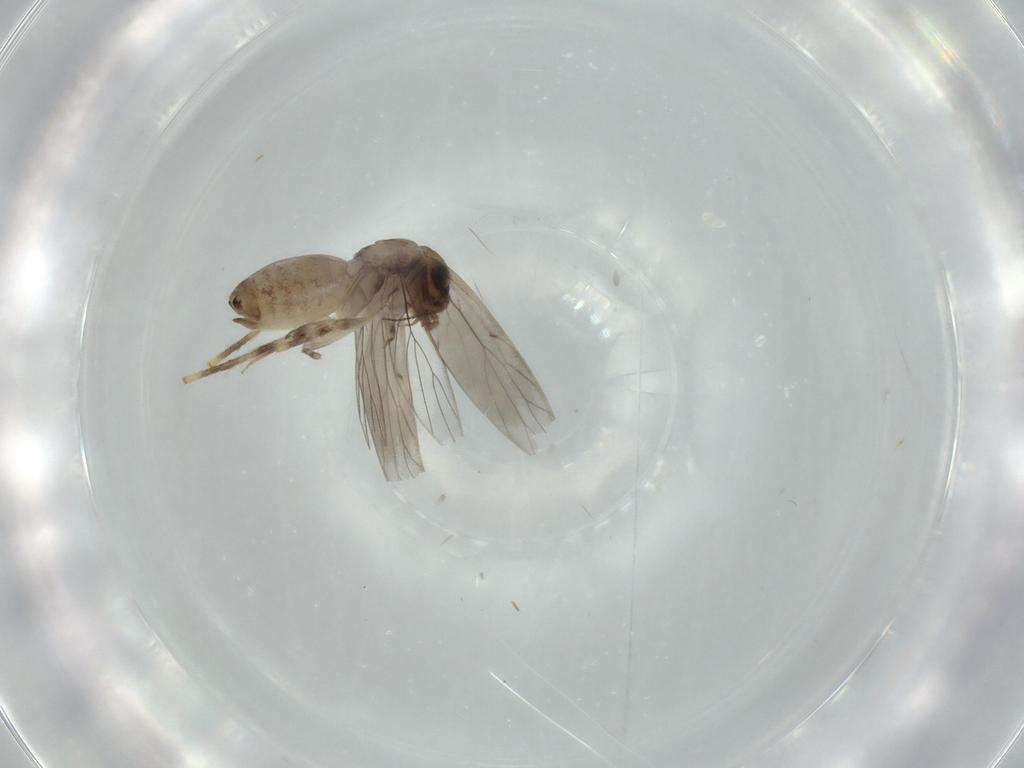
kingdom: Animalia
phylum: Arthropoda
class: Insecta
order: Psocodea
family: Lepidopsocidae
